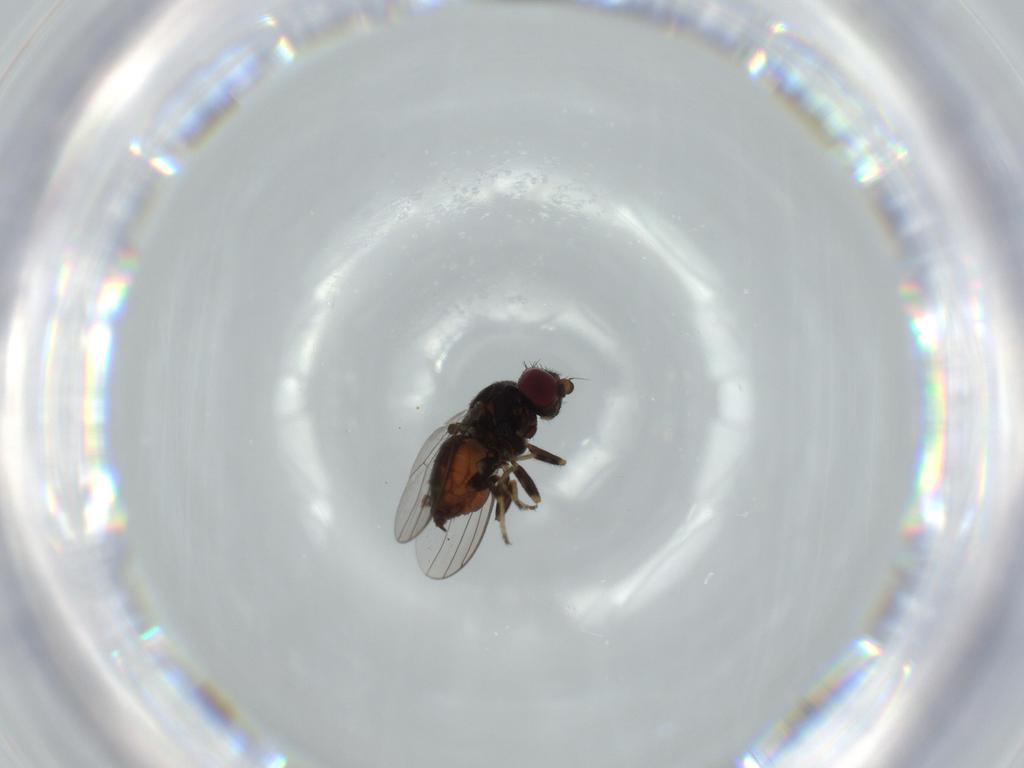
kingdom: Animalia
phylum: Arthropoda
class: Insecta
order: Diptera
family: Chloropidae
